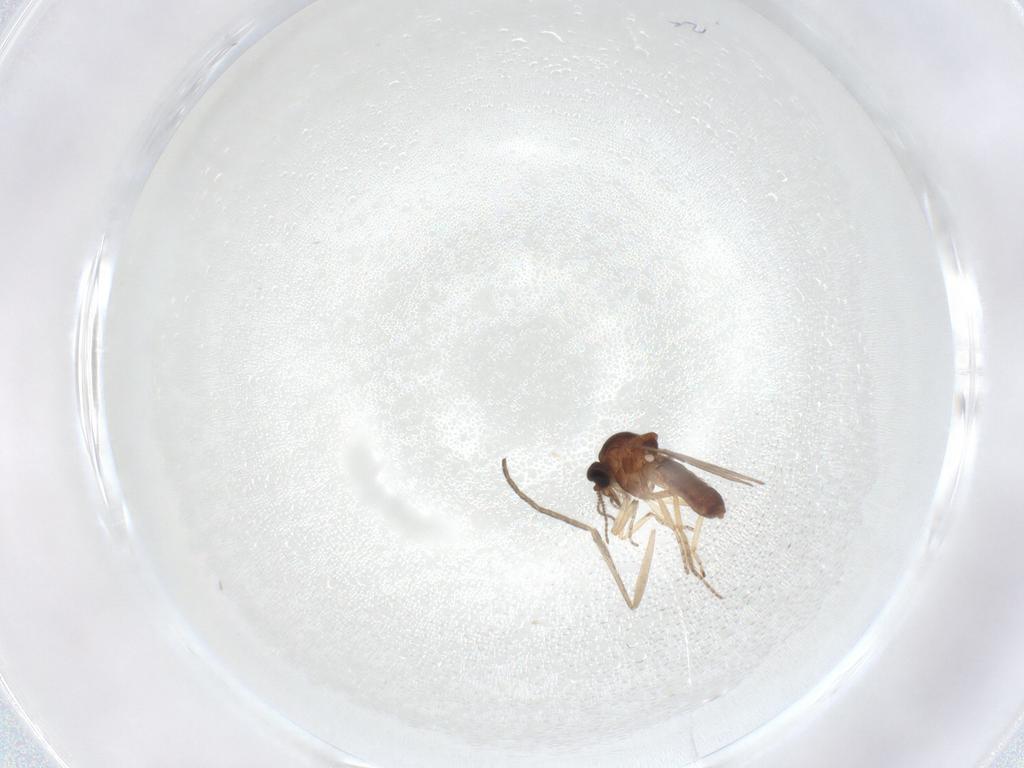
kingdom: Animalia
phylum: Arthropoda
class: Insecta
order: Diptera
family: Ceratopogonidae
